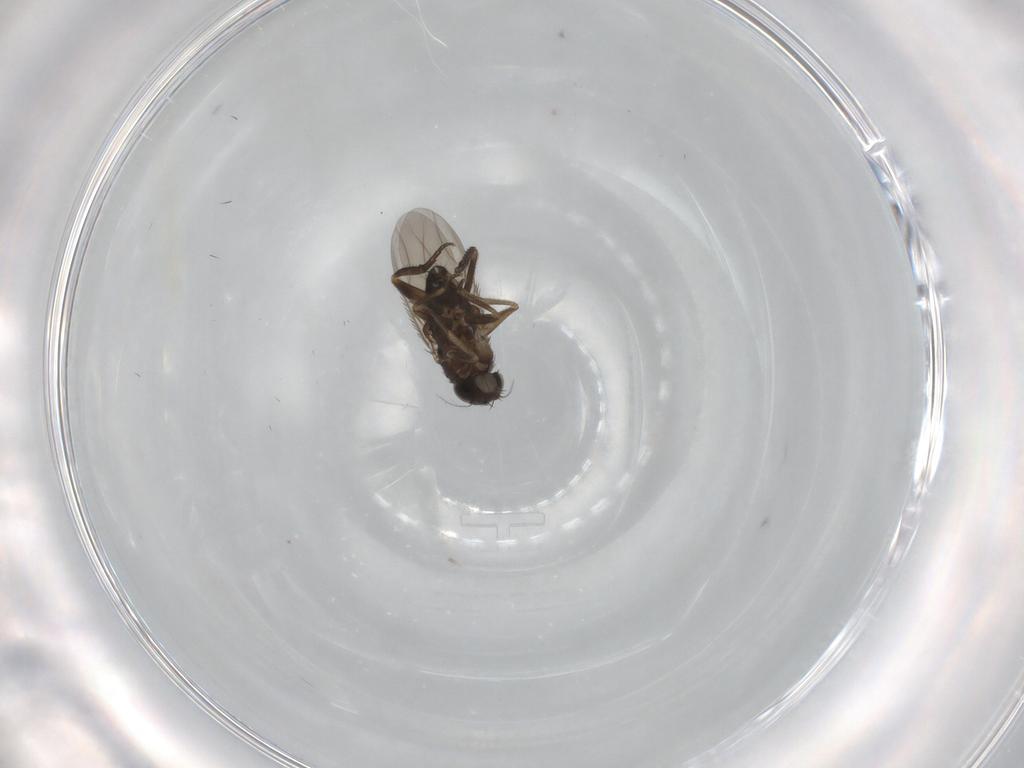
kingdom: Animalia
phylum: Arthropoda
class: Insecta
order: Diptera
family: Phoridae
